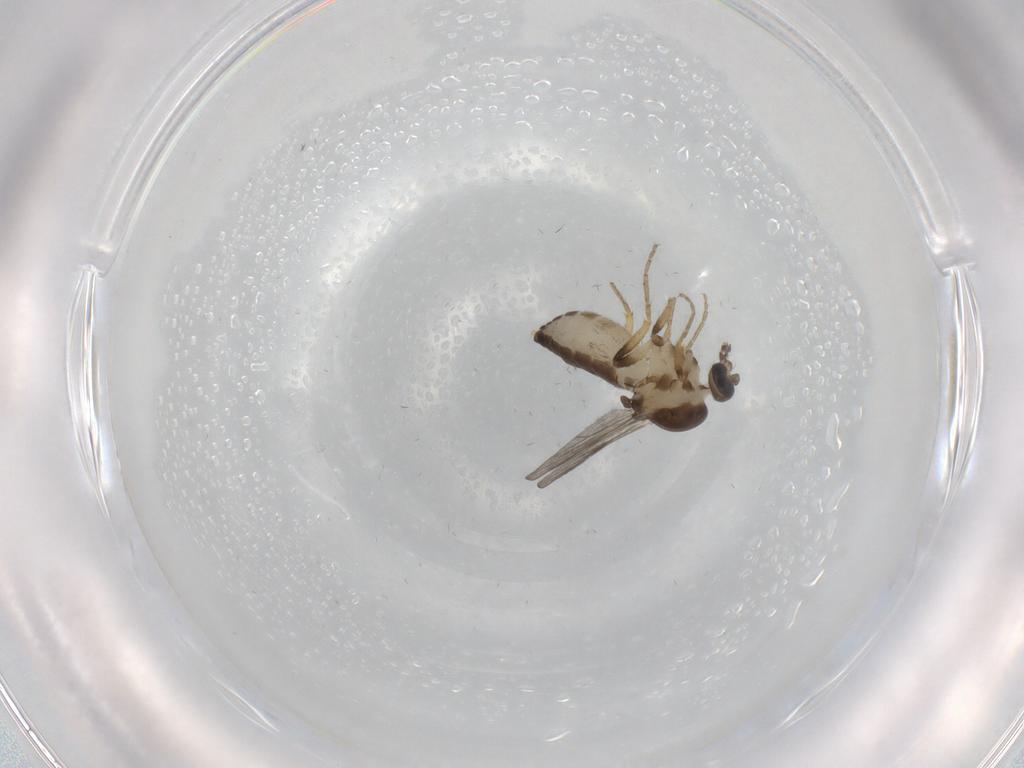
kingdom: Animalia
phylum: Arthropoda
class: Insecta
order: Diptera
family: Ceratopogonidae
